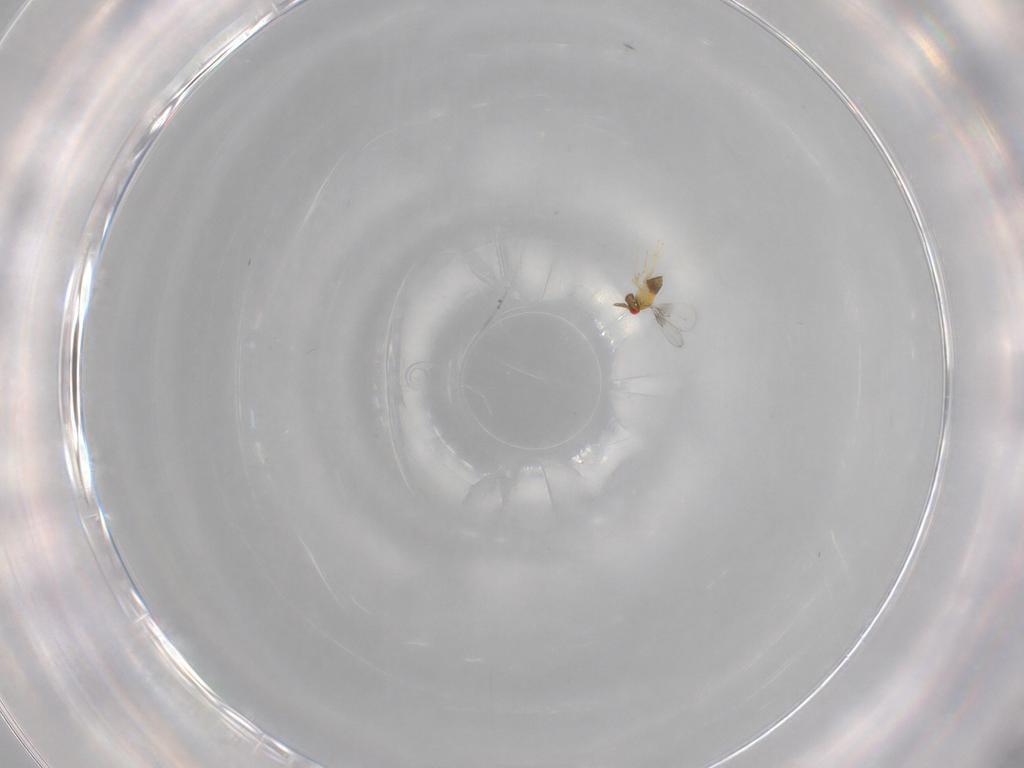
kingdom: Animalia
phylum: Arthropoda
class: Insecta
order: Hymenoptera
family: Trichogrammatidae
